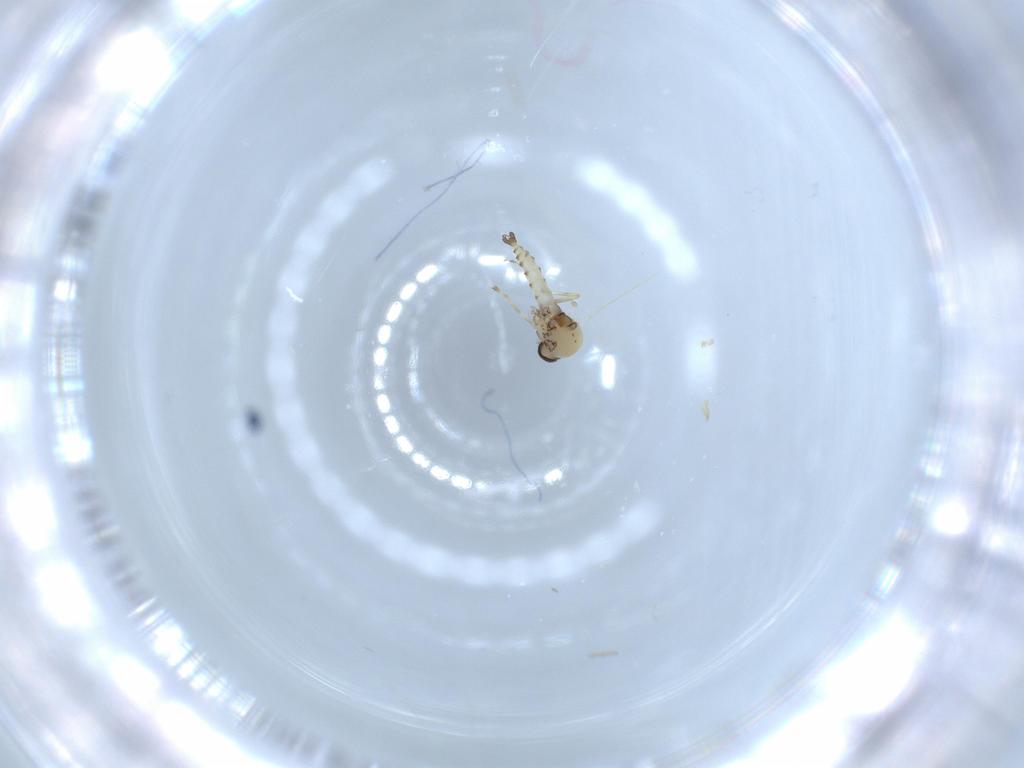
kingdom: Animalia
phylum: Arthropoda
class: Insecta
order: Diptera
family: Ceratopogonidae
